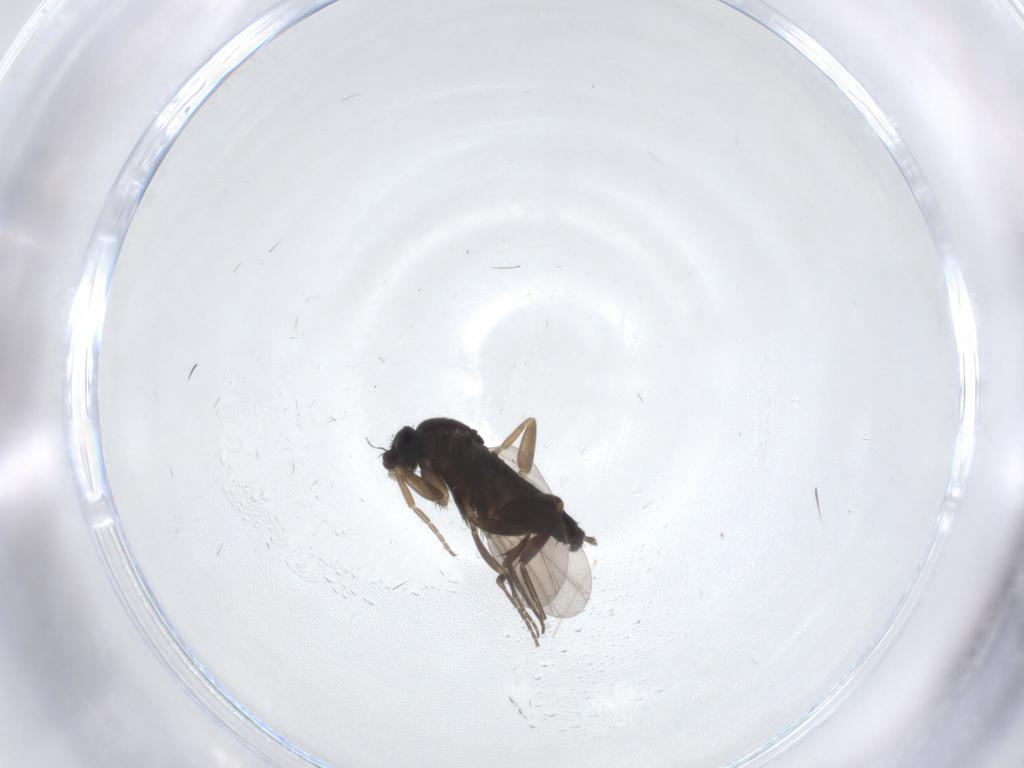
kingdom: Animalia
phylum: Arthropoda
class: Insecta
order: Diptera
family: Phoridae
